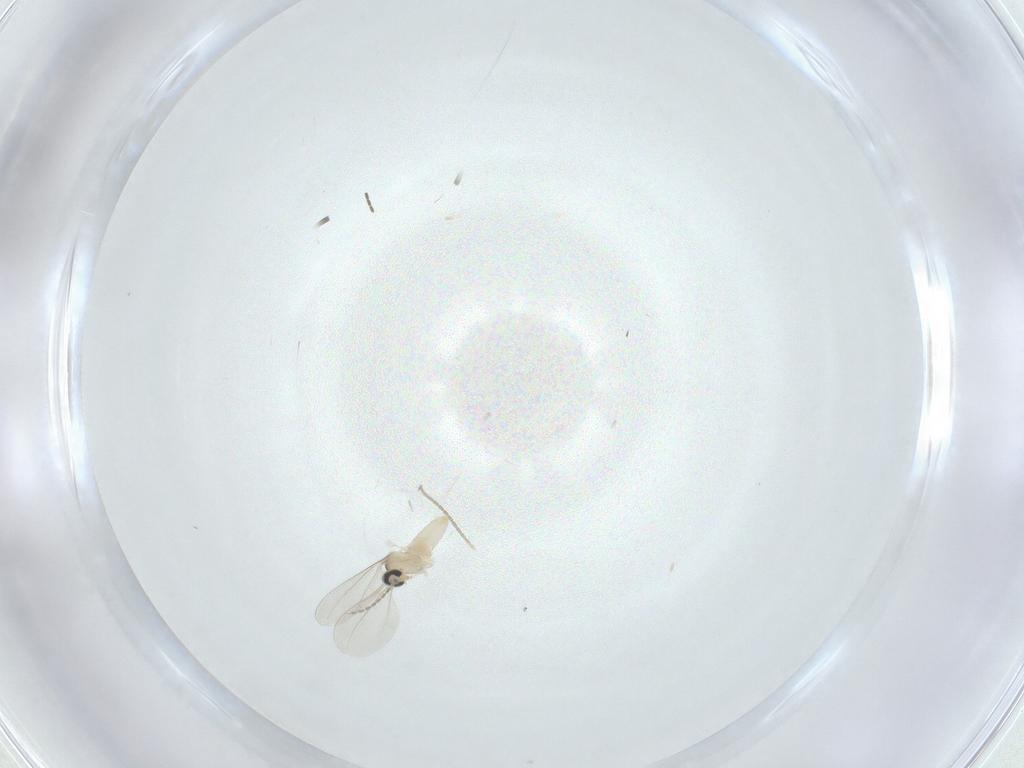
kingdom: Animalia
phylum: Arthropoda
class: Insecta
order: Diptera
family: Cecidomyiidae
